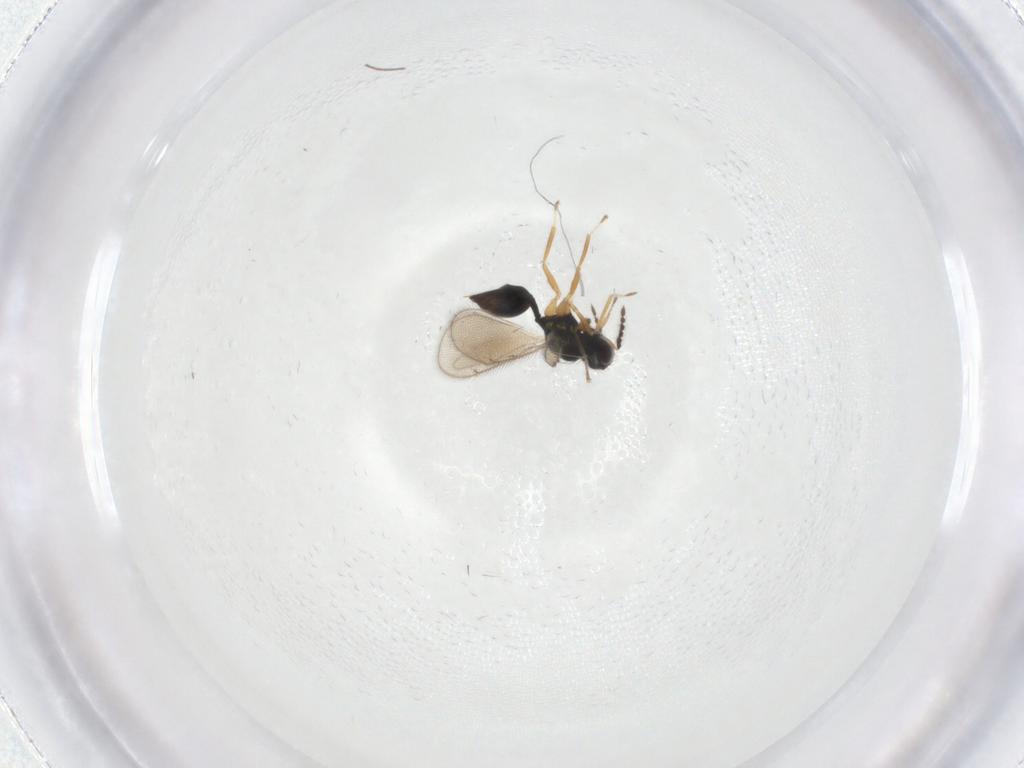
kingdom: Animalia
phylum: Arthropoda
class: Insecta
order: Hymenoptera
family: Eulophidae
